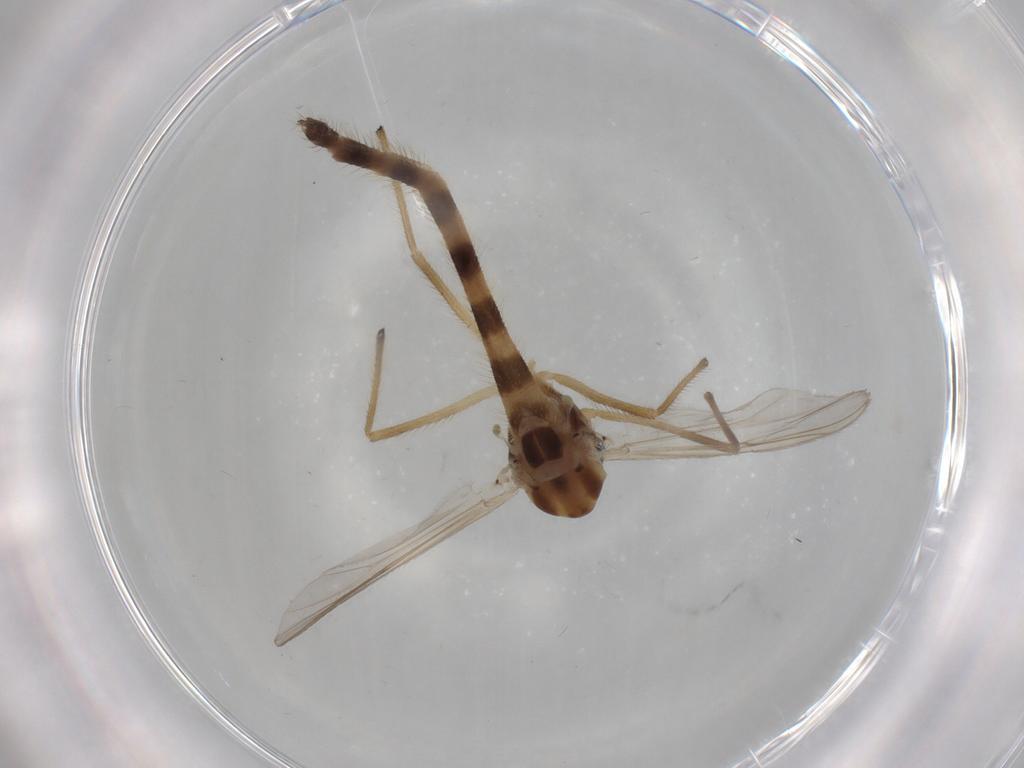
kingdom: Animalia
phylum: Arthropoda
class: Insecta
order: Diptera
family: Chironomidae
